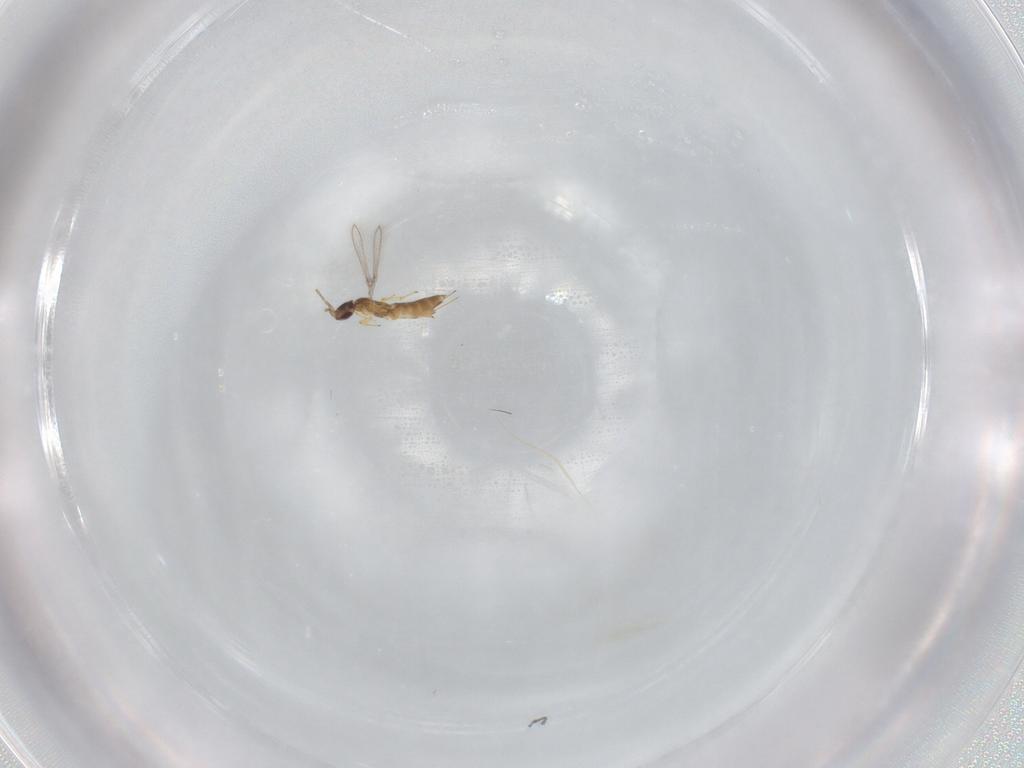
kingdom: Animalia
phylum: Arthropoda
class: Insecta
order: Hymenoptera
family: Mymaridae
